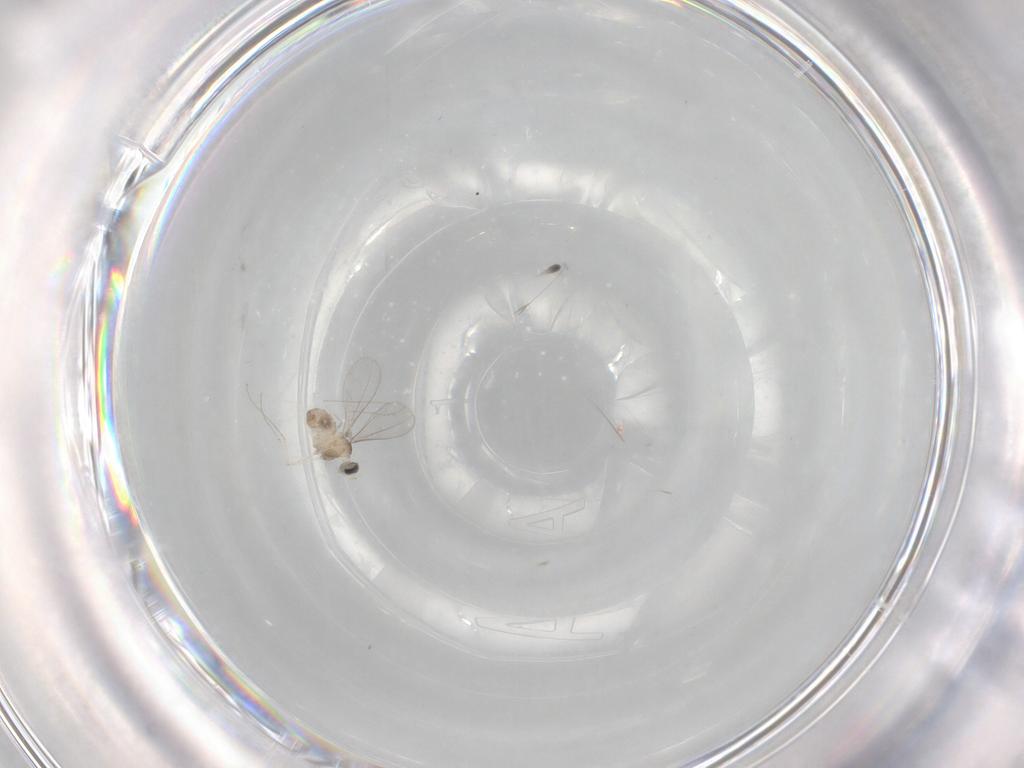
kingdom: Animalia
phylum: Arthropoda
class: Insecta
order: Diptera
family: Cecidomyiidae
